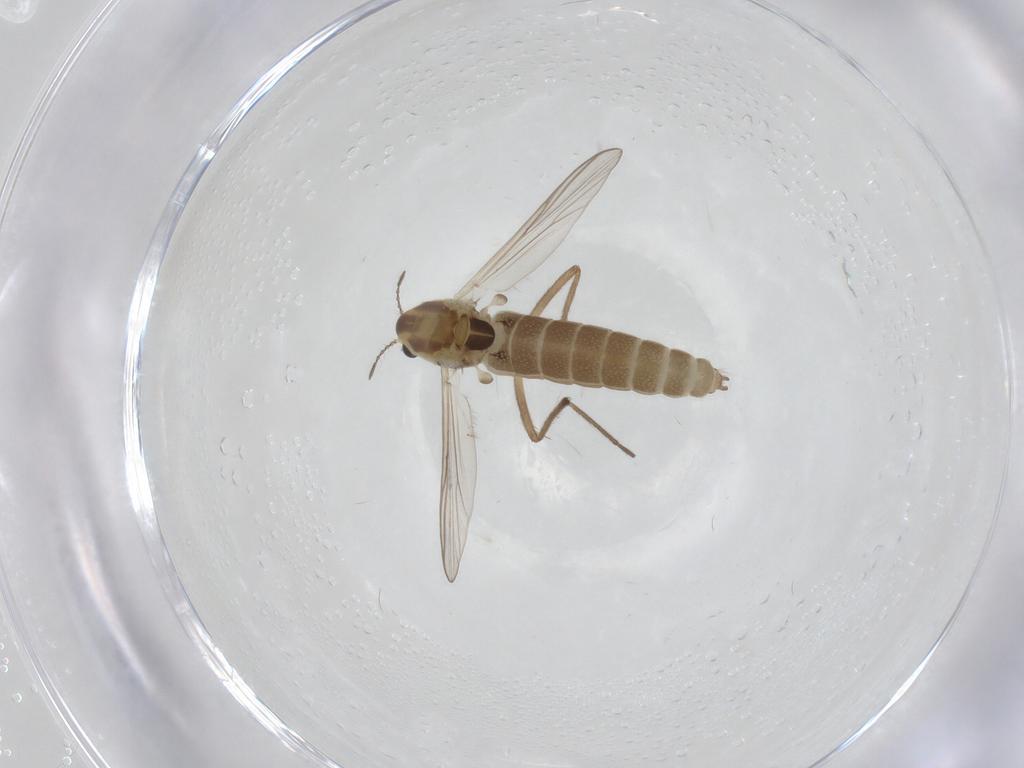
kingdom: Animalia
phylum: Arthropoda
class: Insecta
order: Diptera
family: Chironomidae
